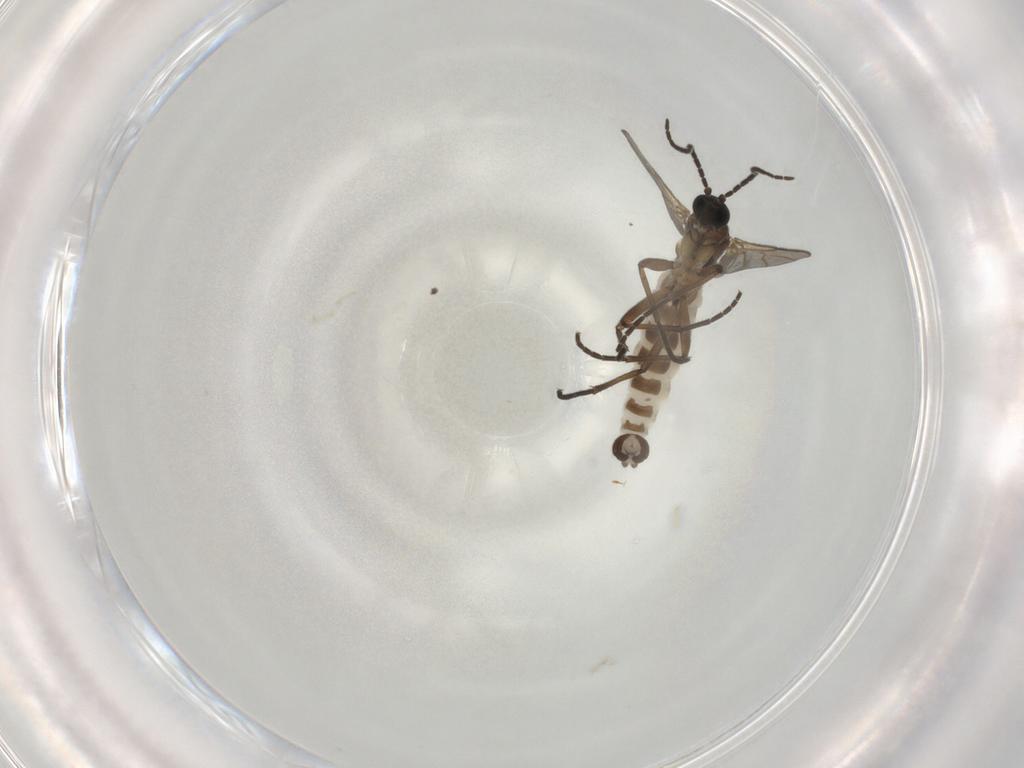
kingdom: Animalia
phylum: Arthropoda
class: Insecta
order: Diptera
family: Sciaridae
